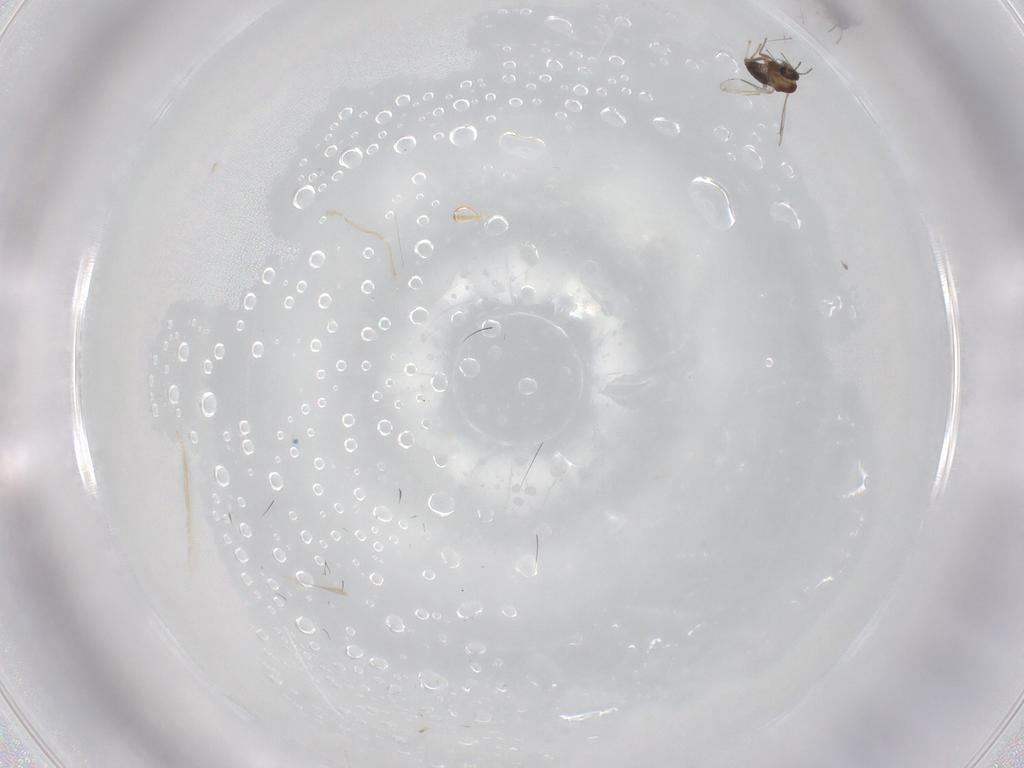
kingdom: Animalia
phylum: Arthropoda
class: Insecta
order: Diptera
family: Chironomidae
